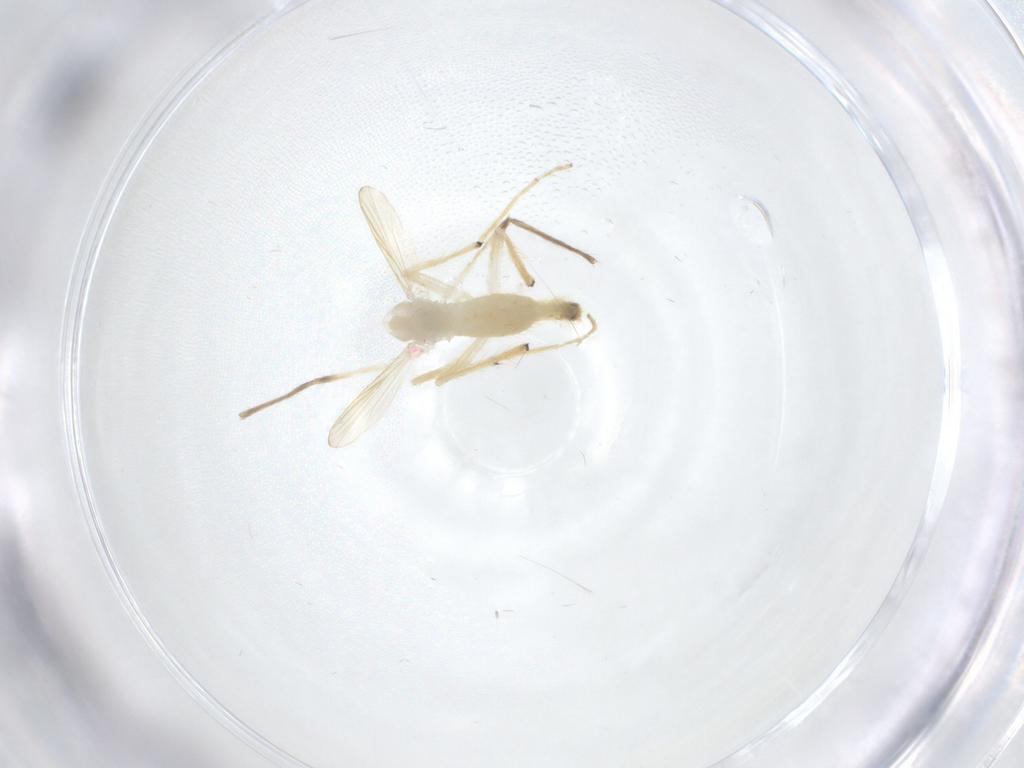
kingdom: Animalia
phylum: Arthropoda
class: Insecta
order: Diptera
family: Chironomidae
